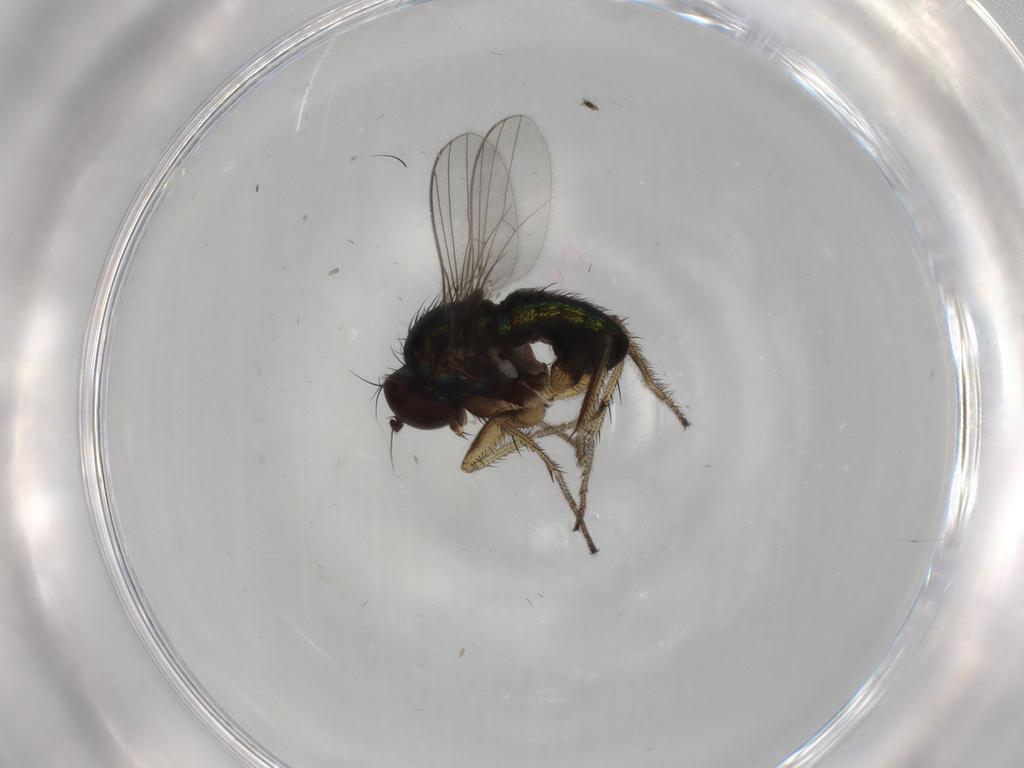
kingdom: Animalia
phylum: Arthropoda
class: Insecta
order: Diptera
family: Dolichopodidae
